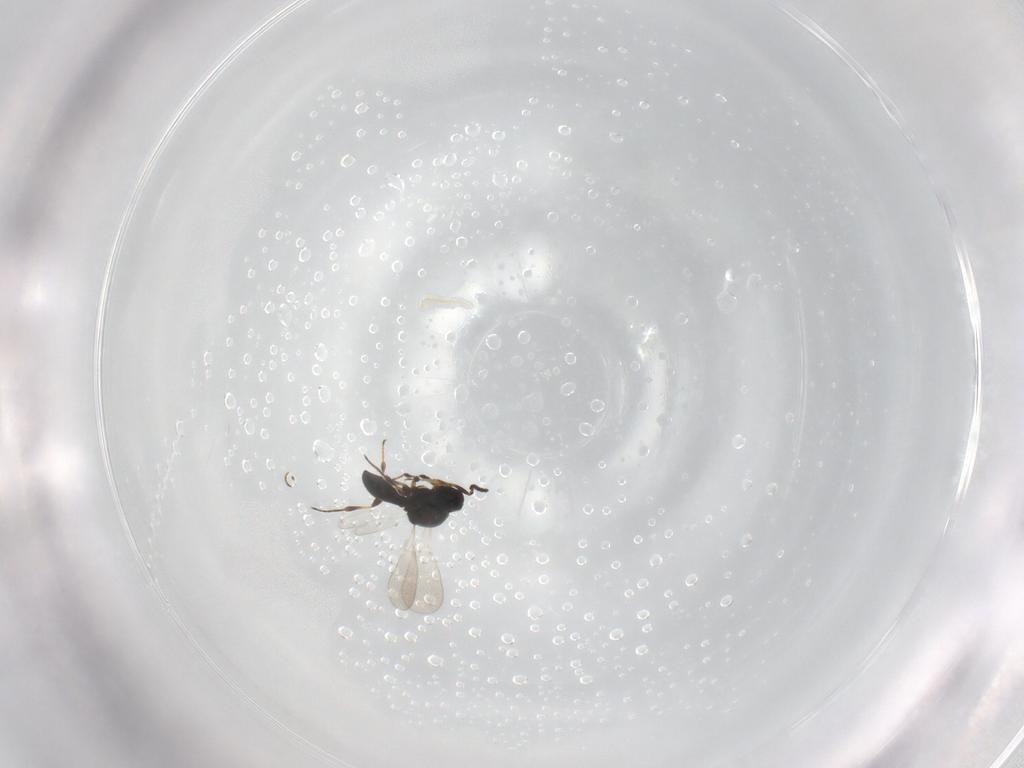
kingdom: Animalia
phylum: Arthropoda
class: Insecta
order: Hymenoptera
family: Platygastridae
